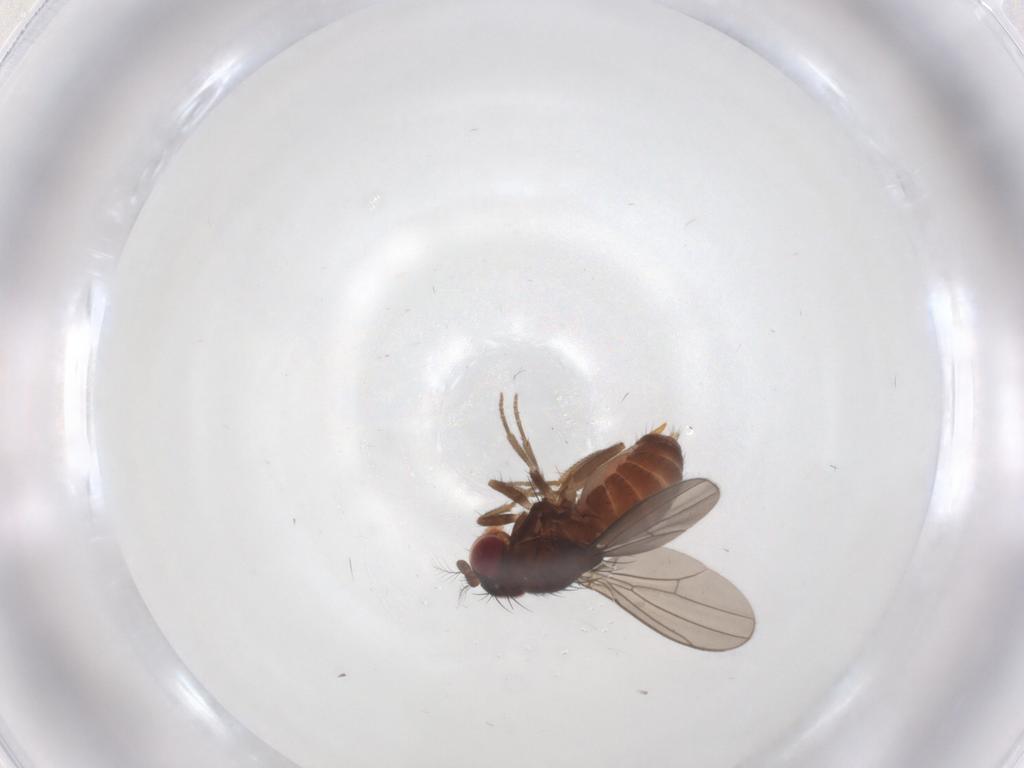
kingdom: Animalia
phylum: Arthropoda
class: Insecta
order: Diptera
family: Drosophilidae
